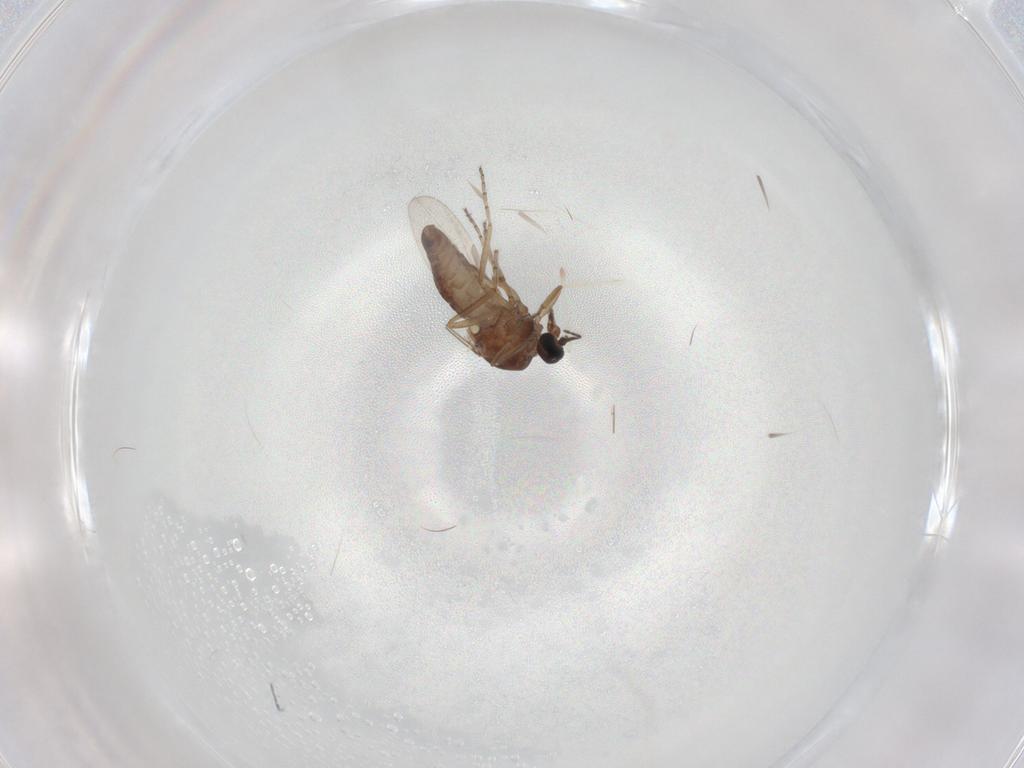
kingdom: Animalia
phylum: Arthropoda
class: Insecta
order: Diptera
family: Ceratopogonidae
